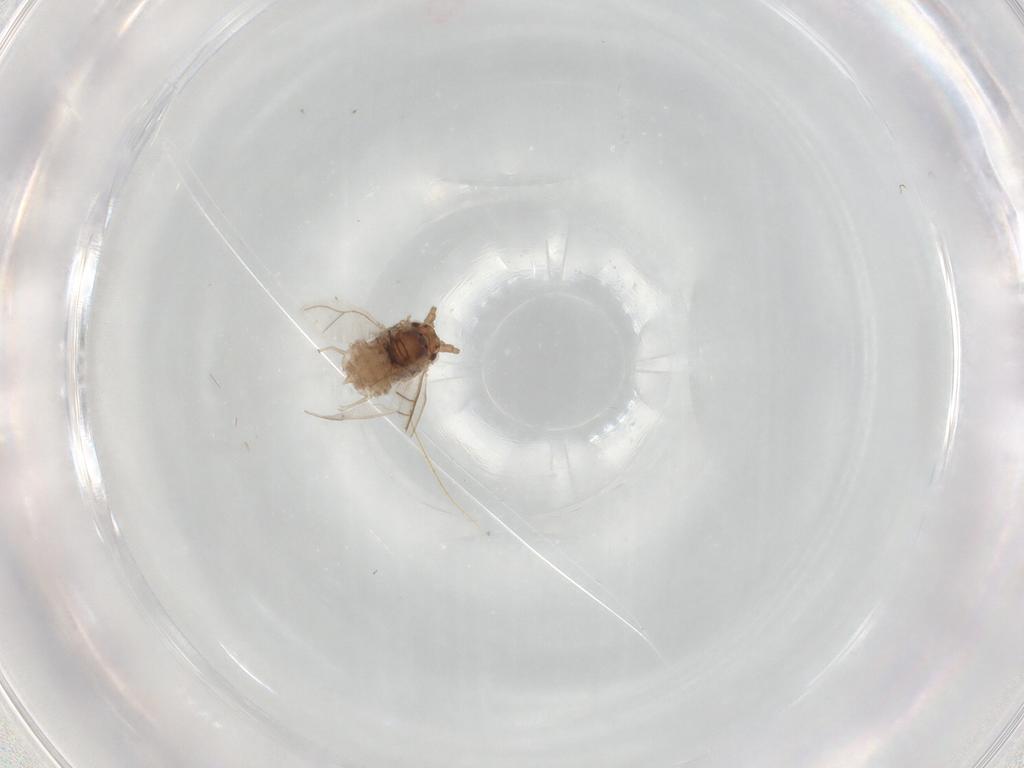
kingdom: Animalia
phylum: Arthropoda
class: Insecta
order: Hemiptera
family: Aphididae
